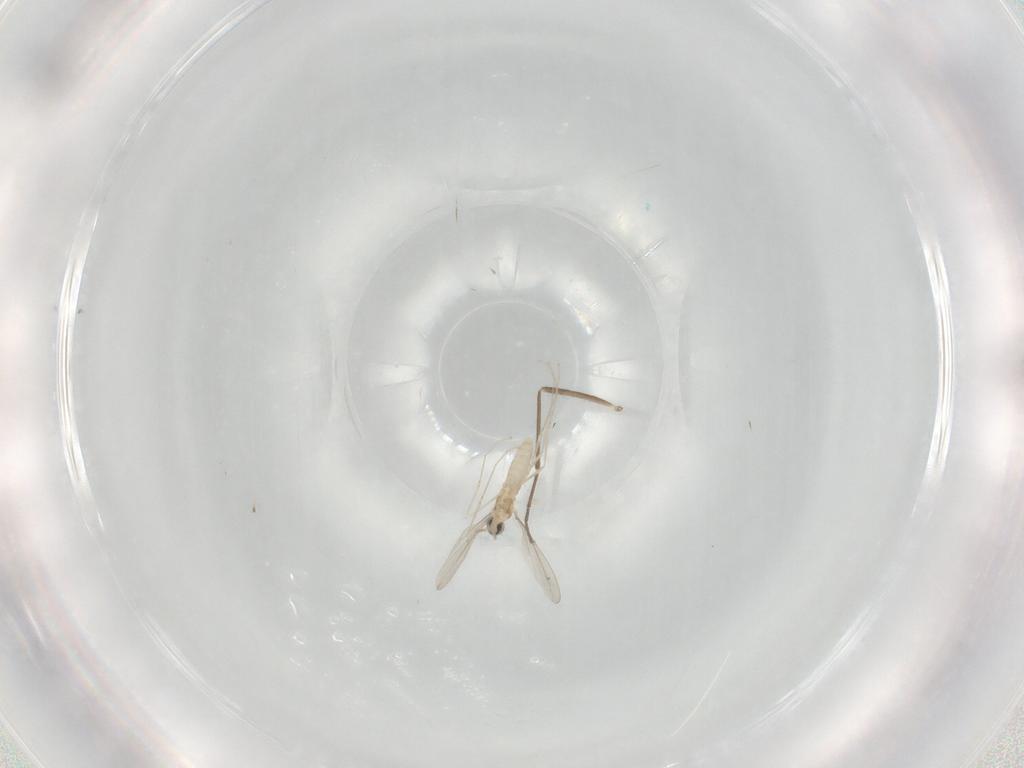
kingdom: Animalia
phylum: Arthropoda
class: Insecta
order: Diptera
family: Cecidomyiidae
